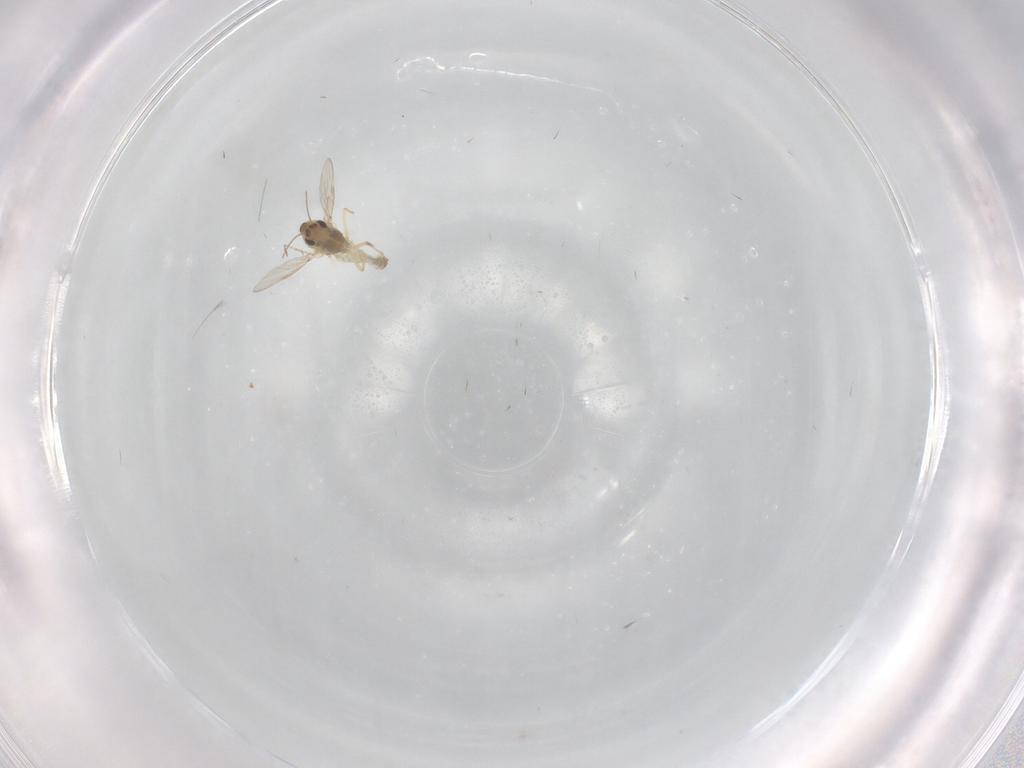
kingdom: Animalia
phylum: Arthropoda
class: Insecta
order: Diptera
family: Chironomidae
